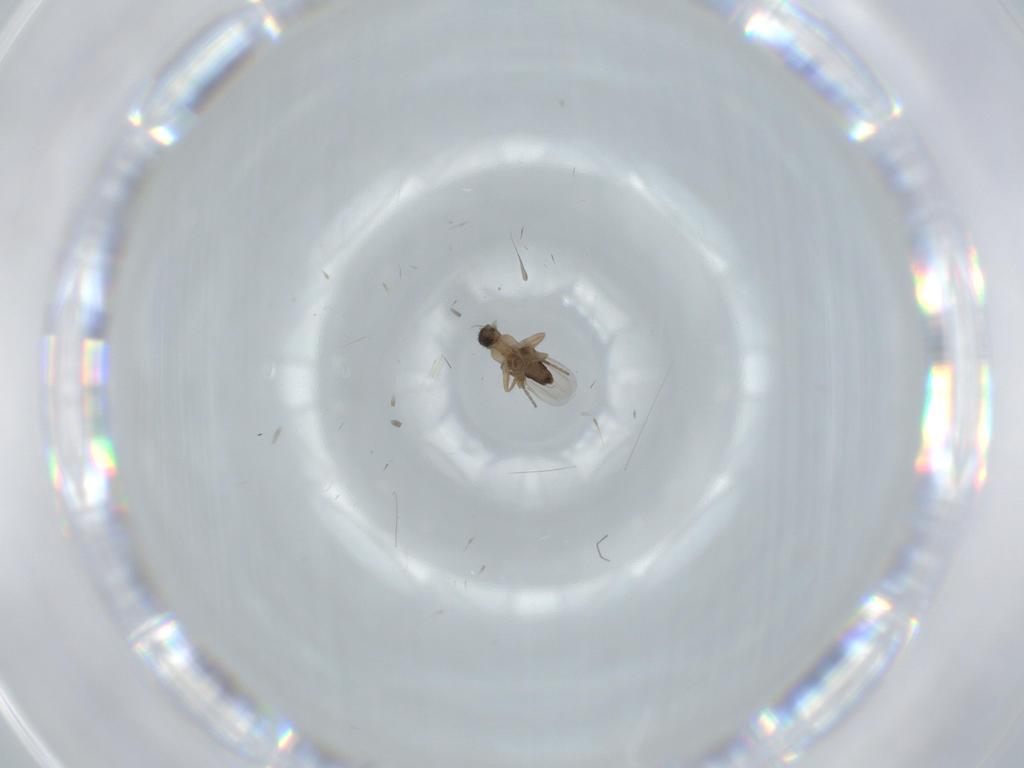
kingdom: Animalia
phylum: Arthropoda
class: Insecta
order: Diptera
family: Phoridae
